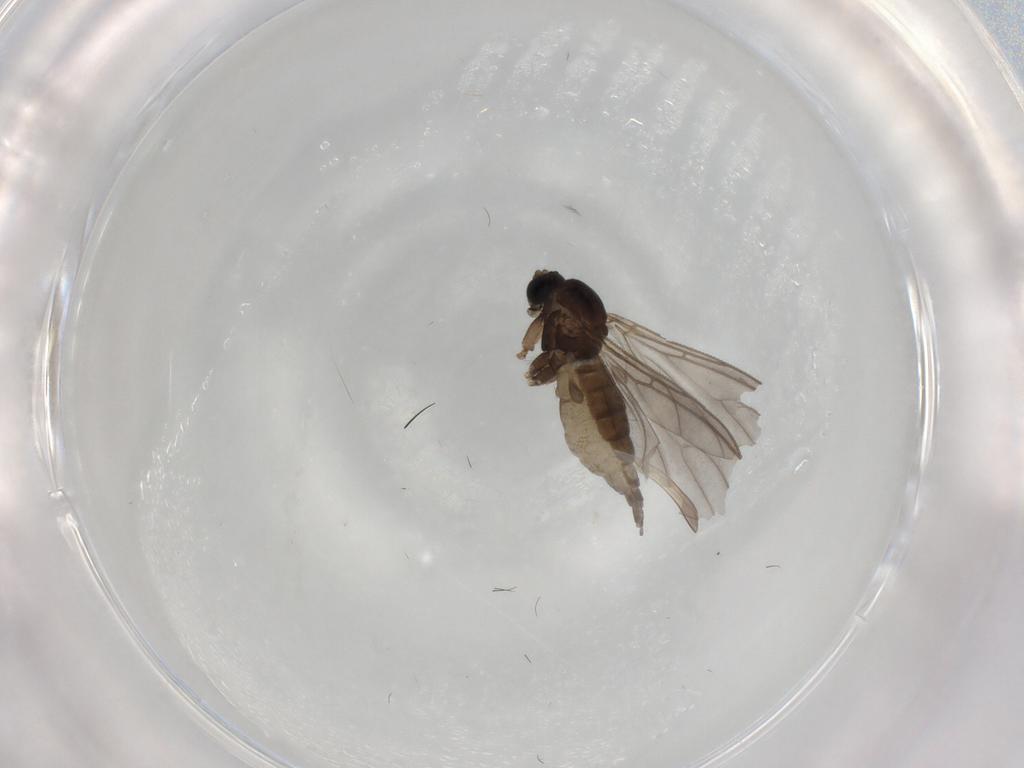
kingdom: Animalia
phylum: Arthropoda
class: Insecta
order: Diptera
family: Sciaridae
